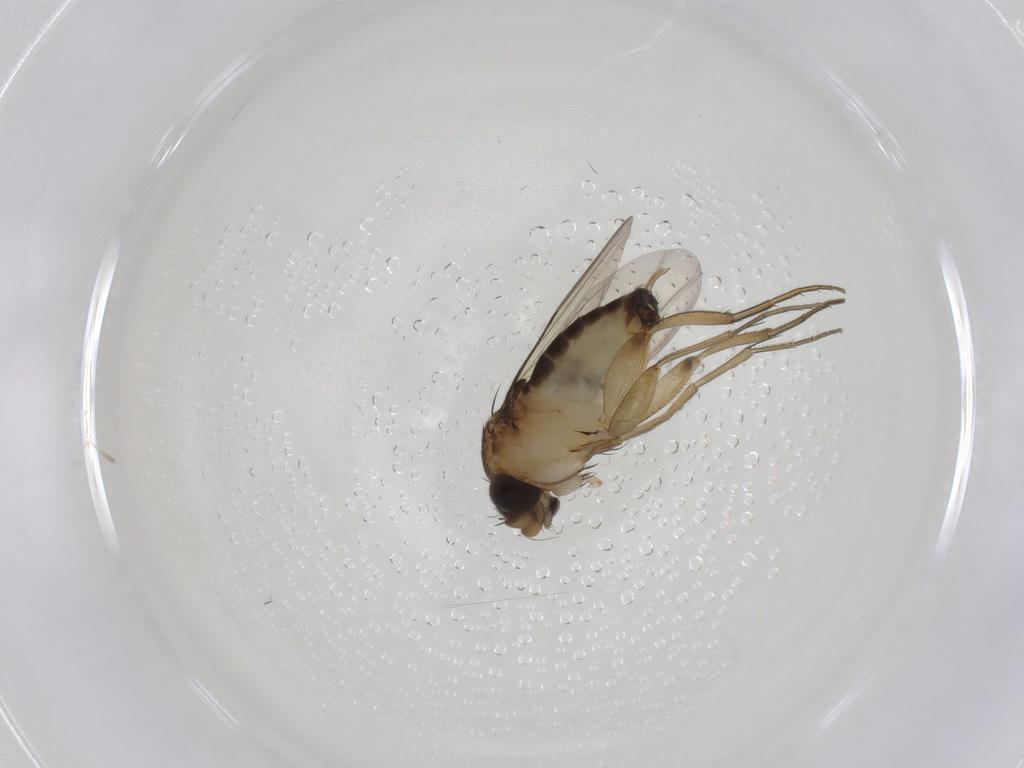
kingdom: Animalia
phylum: Arthropoda
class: Insecta
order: Diptera
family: Phoridae
